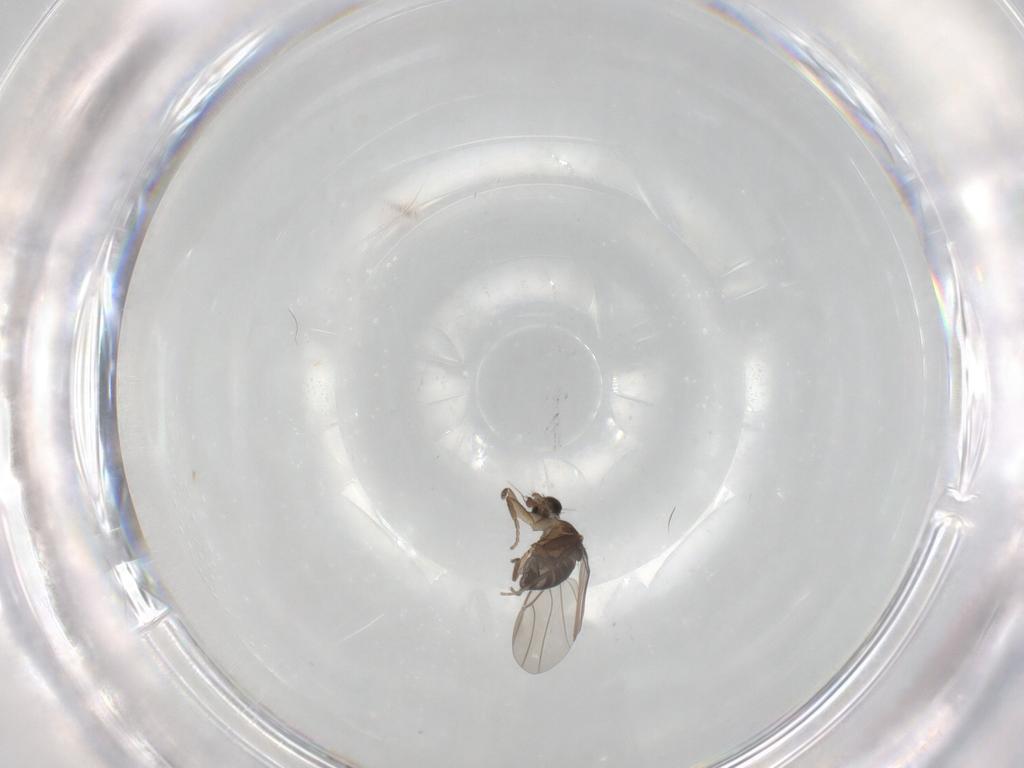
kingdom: Animalia
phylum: Arthropoda
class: Insecta
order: Diptera
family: Phoridae
